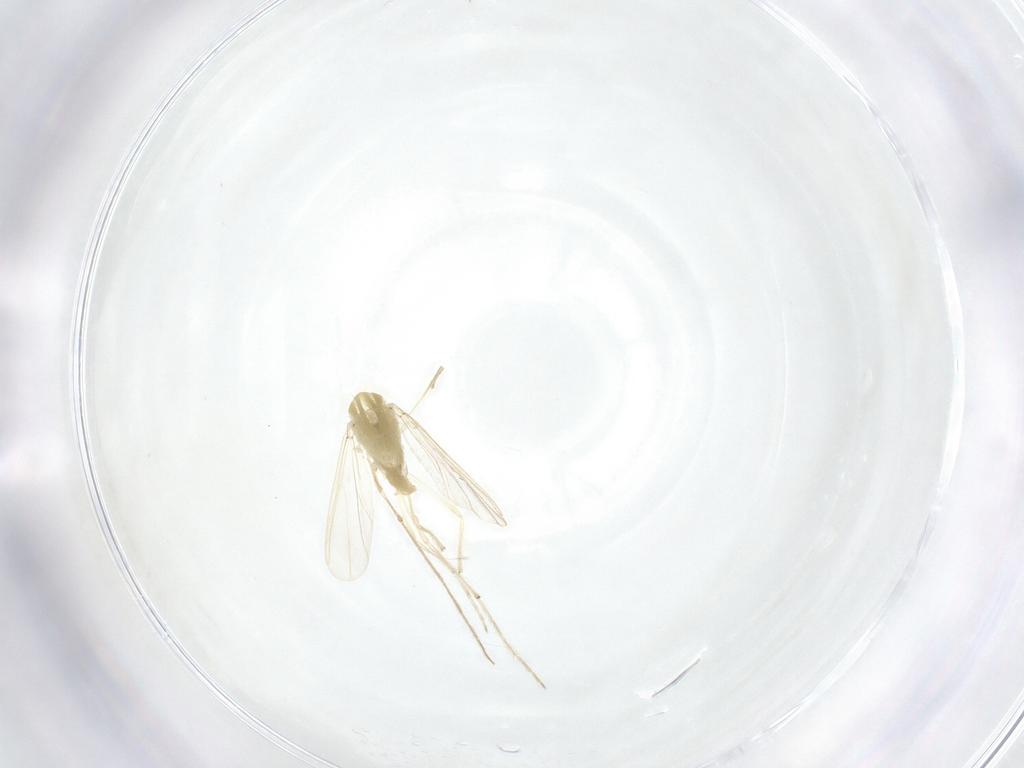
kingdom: Animalia
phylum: Arthropoda
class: Insecta
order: Diptera
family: Chironomidae
